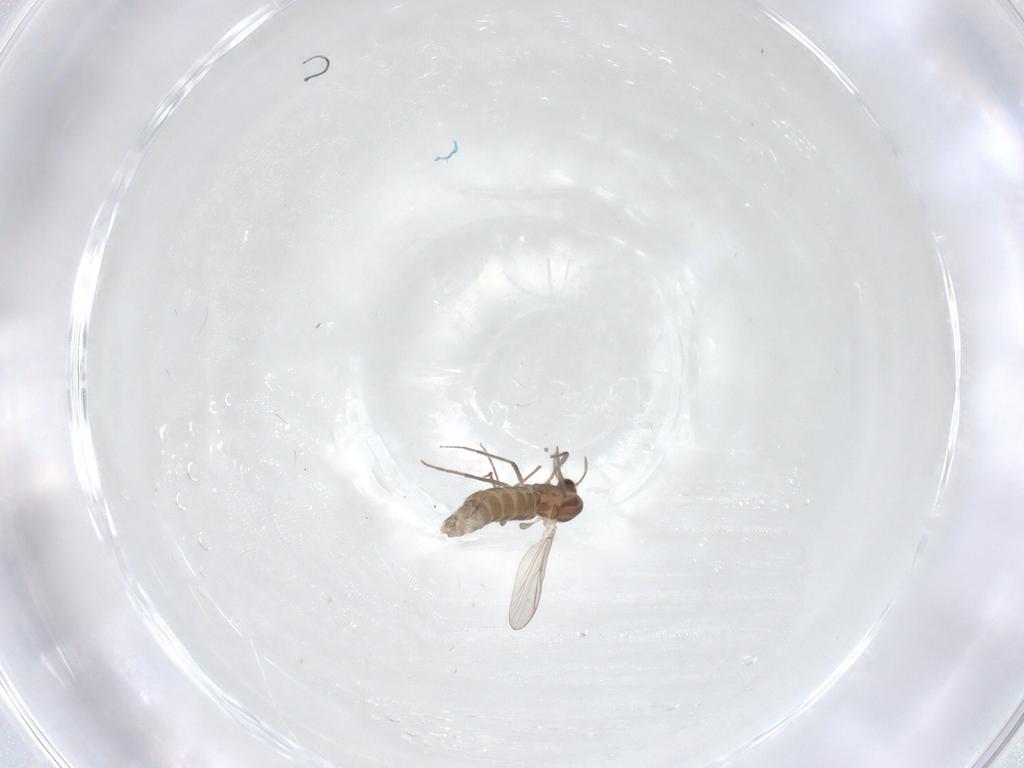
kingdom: Animalia
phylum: Arthropoda
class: Insecta
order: Diptera
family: Chironomidae
